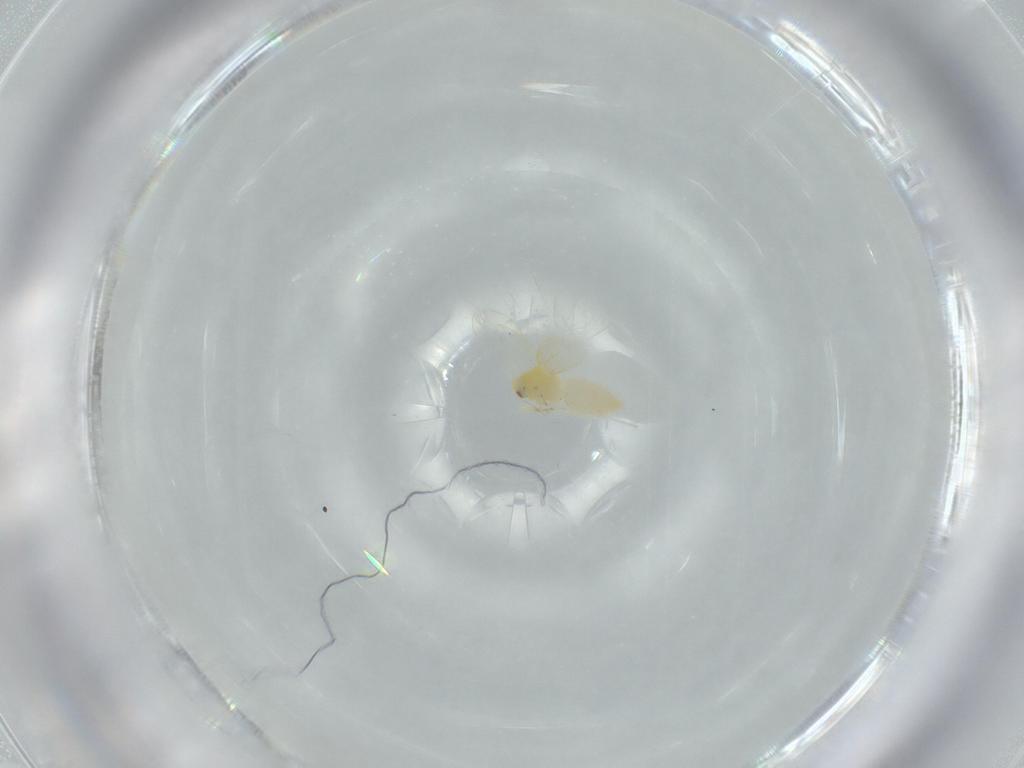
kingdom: Animalia
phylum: Arthropoda
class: Insecta
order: Hemiptera
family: Aleyrodidae
